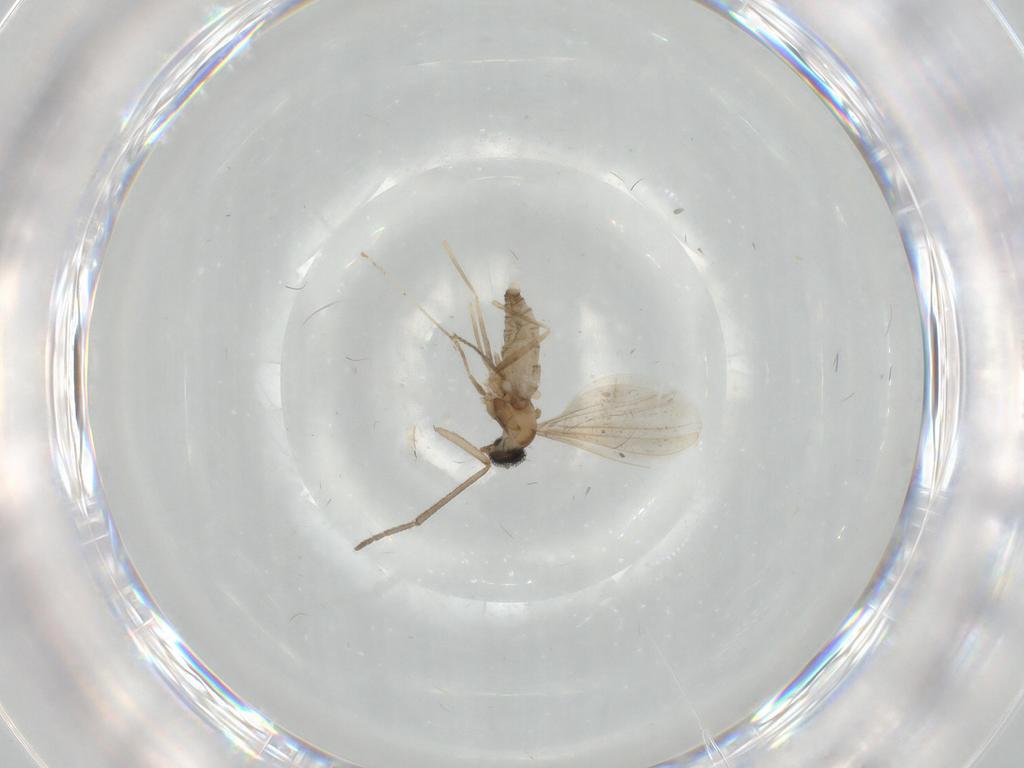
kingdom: Animalia
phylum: Arthropoda
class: Insecta
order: Diptera
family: Cecidomyiidae
